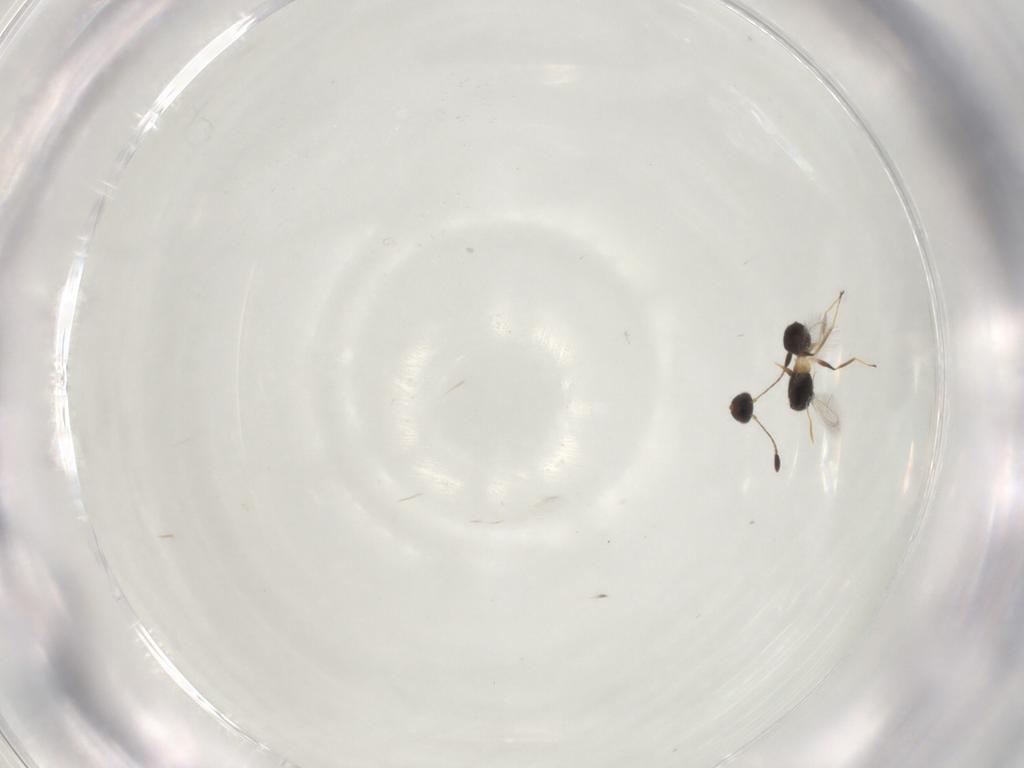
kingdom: Animalia
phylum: Arthropoda
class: Insecta
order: Hymenoptera
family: Mymaridae
